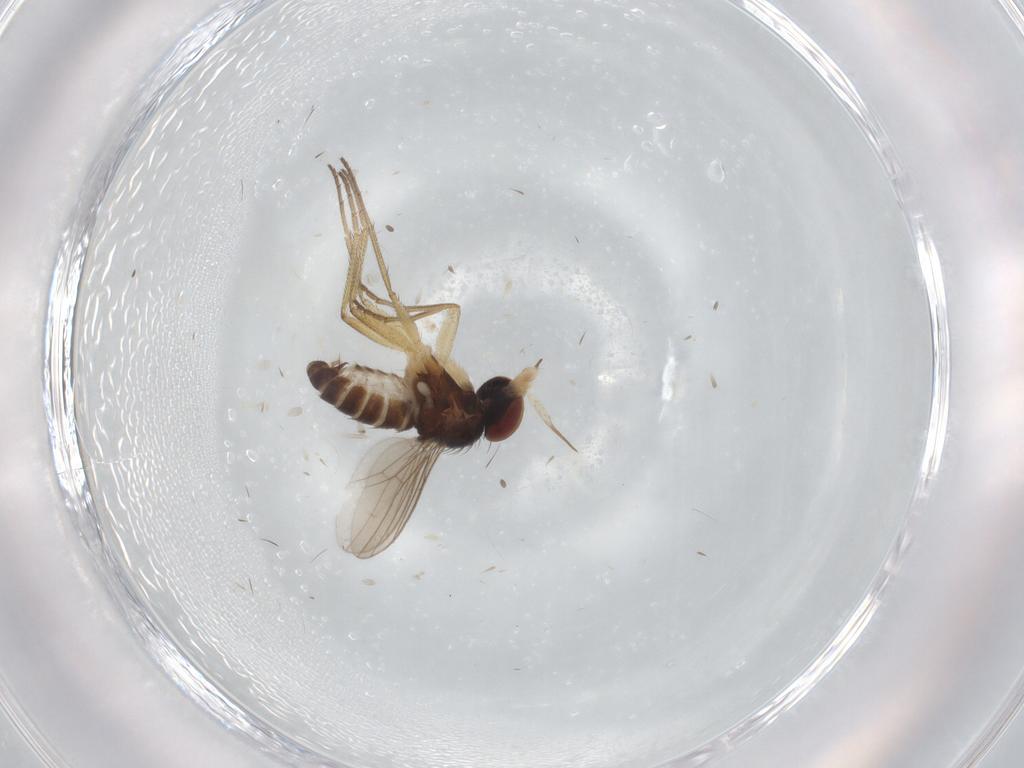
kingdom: Animalia
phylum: Arthropoda
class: Insecta
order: Diptera
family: Dolichopodidae
